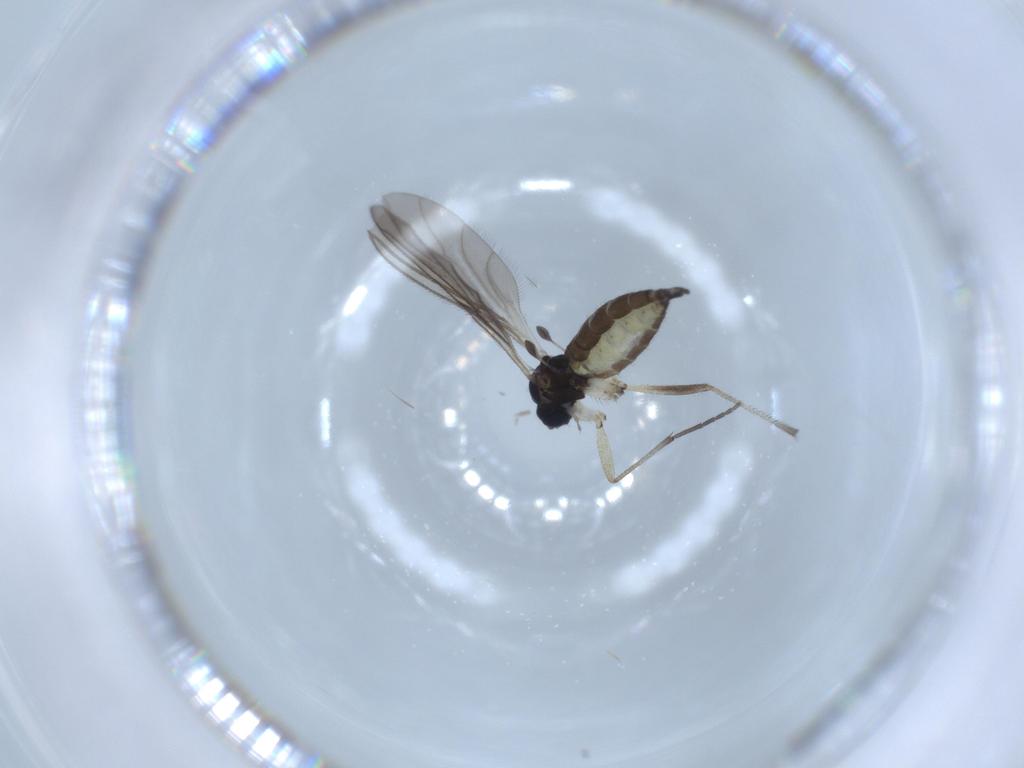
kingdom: Animalia
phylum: Arthropoda
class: Insecta
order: Diptera
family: Sciaridae
